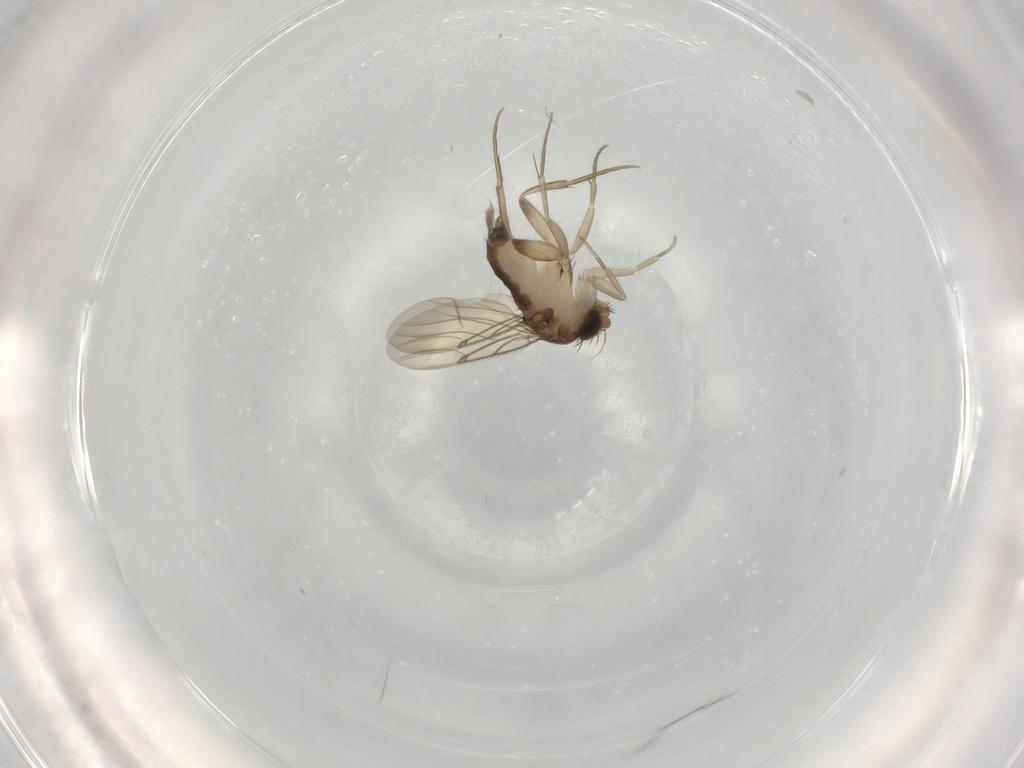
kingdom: Animalia
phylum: Arthropoda
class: Insecta
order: Diptera
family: Phoridae
